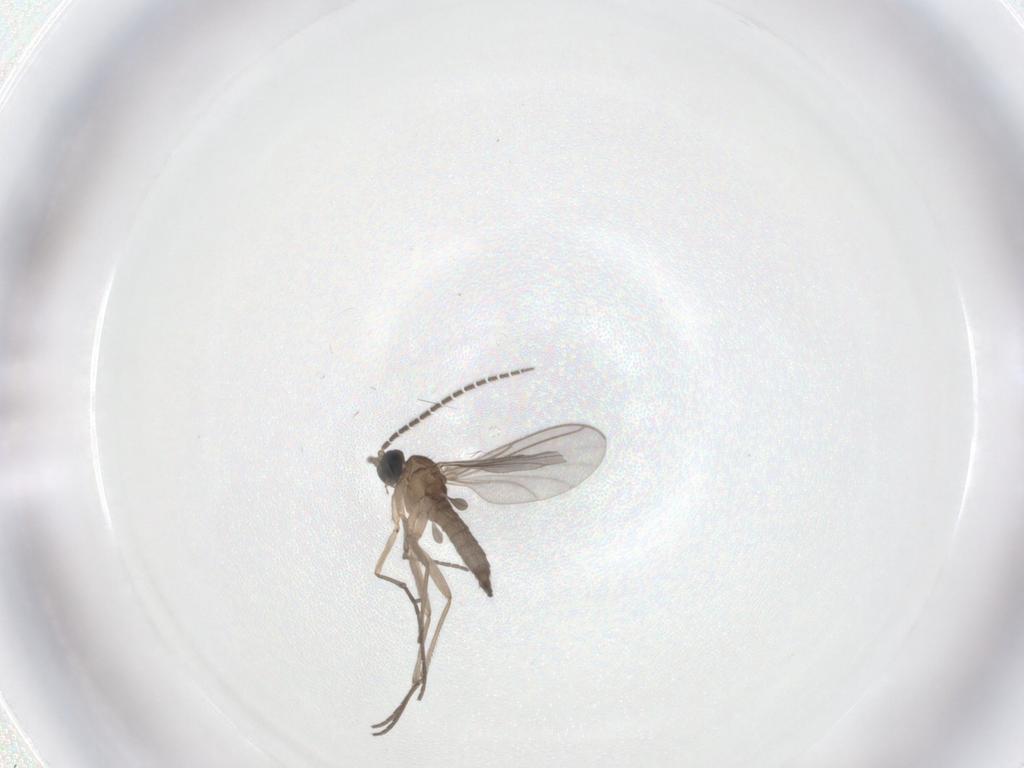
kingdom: Animalia
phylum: Arthropoda
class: Insecta
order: Diptera
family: Sciaridae
